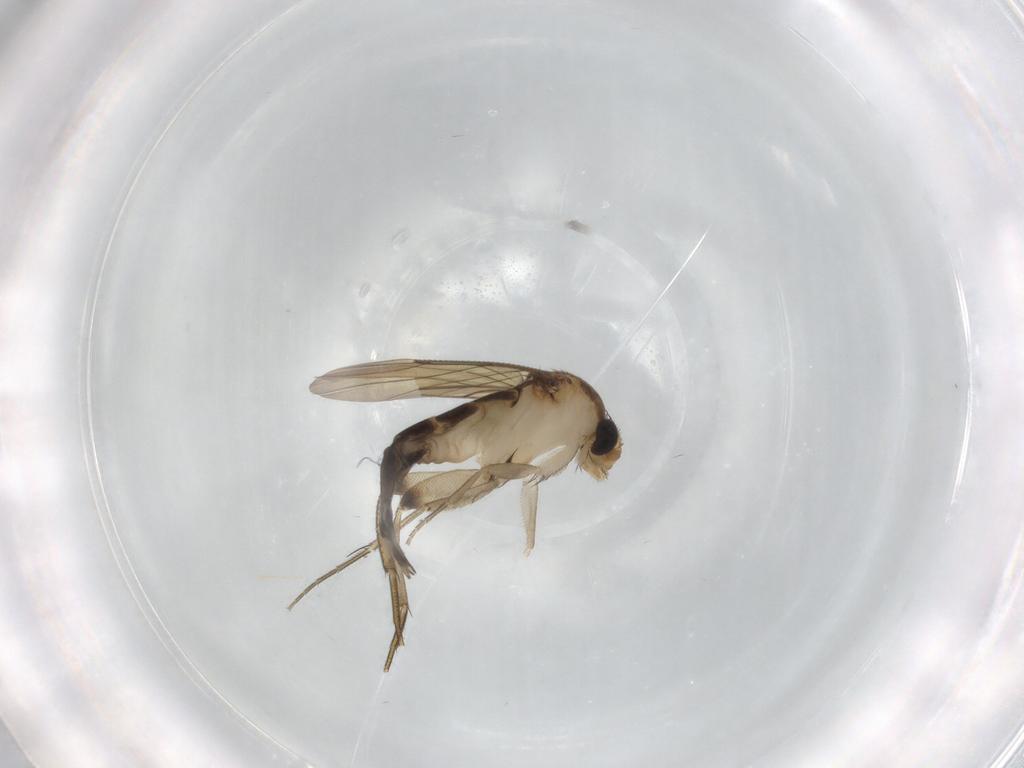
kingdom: Animalia
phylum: Arthropoda
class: Insecta
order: Diptera
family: Phoridae
